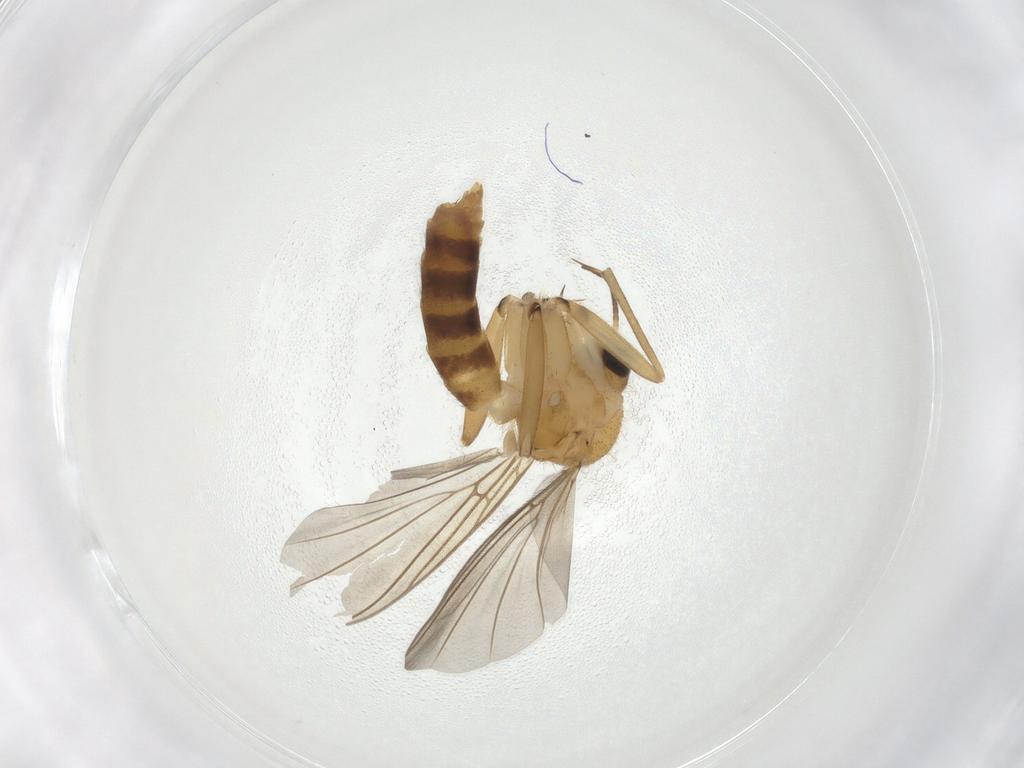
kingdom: Animalia
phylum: Arthropoda
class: Insecta
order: Diptera
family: Mycetophilidae
